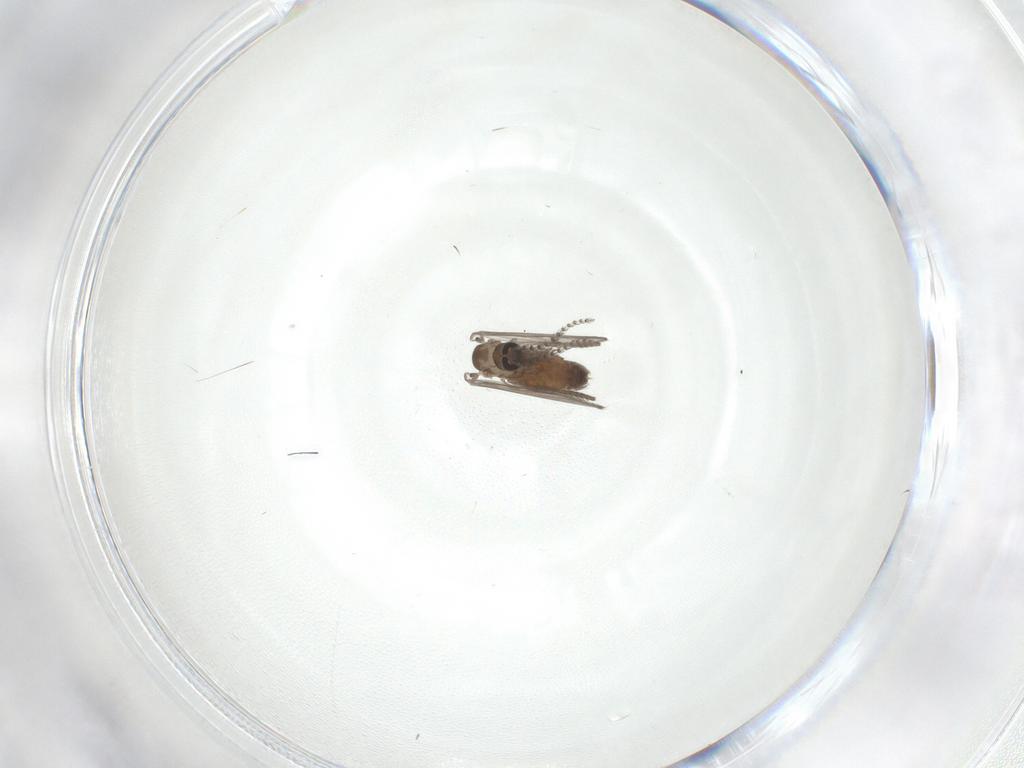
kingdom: Animalia
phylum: Arthropoda
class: Insecta
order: Diptera
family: Psychodidae
